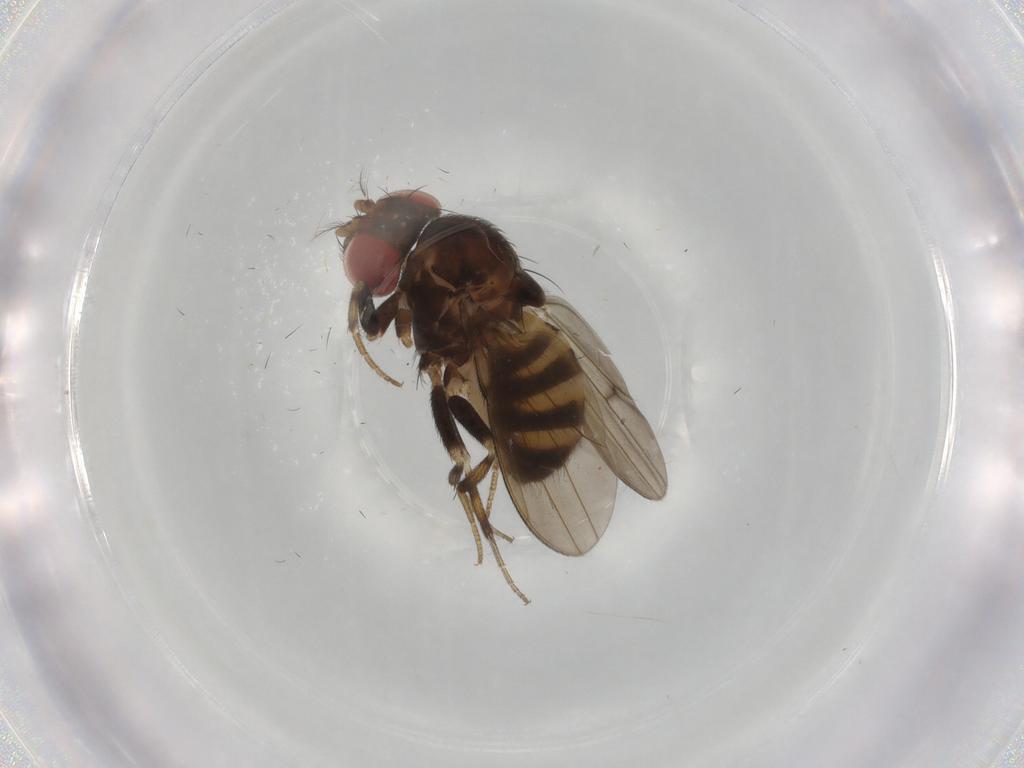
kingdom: Animalia
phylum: Arthropoda
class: Insecta
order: Diptera
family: Drosophilidae
